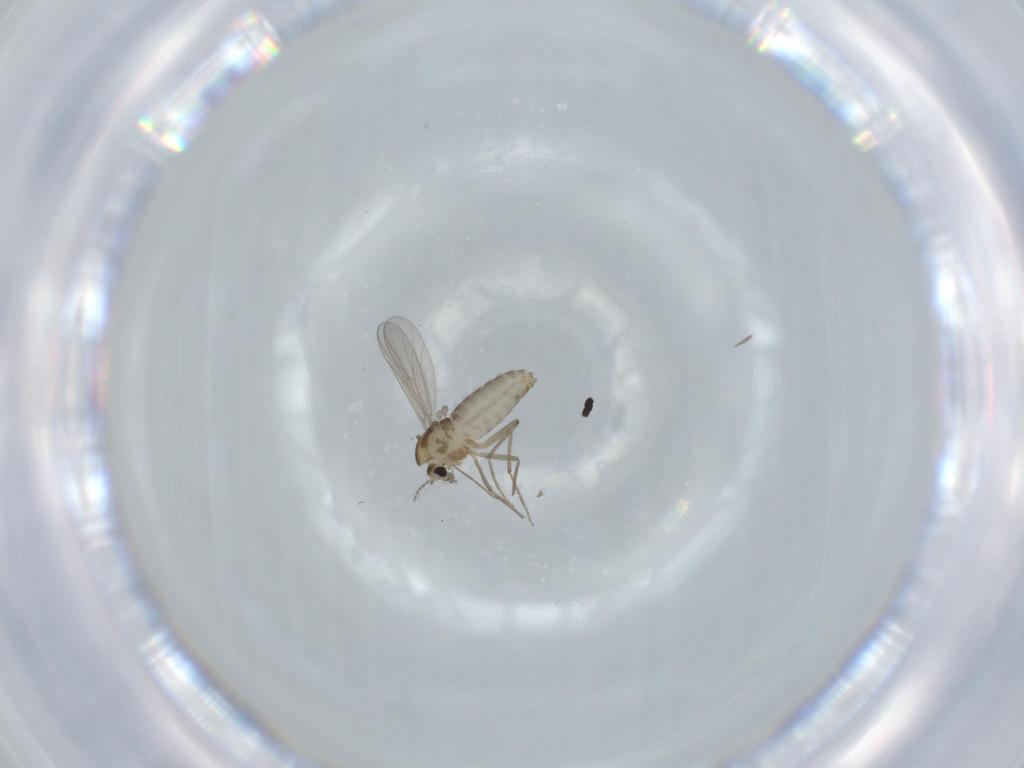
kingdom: Animalia
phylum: Arthropoda
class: Insecta
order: Diptera
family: Chironomidae
